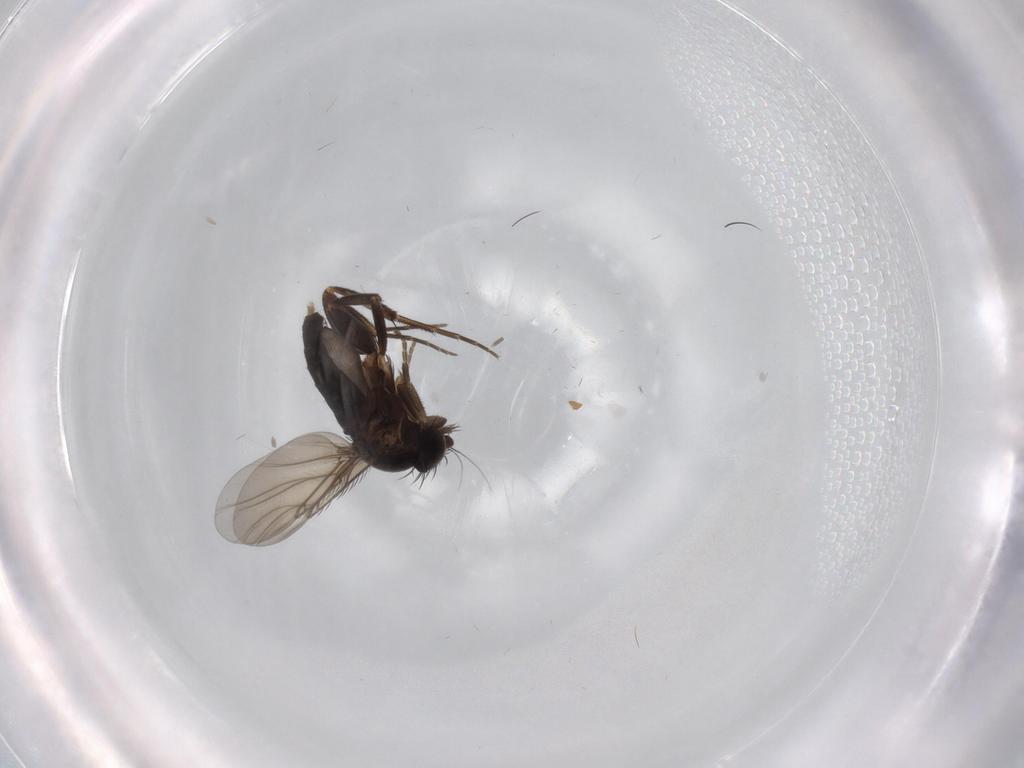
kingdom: Animalia
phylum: Arthropoda
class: Insecta
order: Diptera
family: Phoridae
